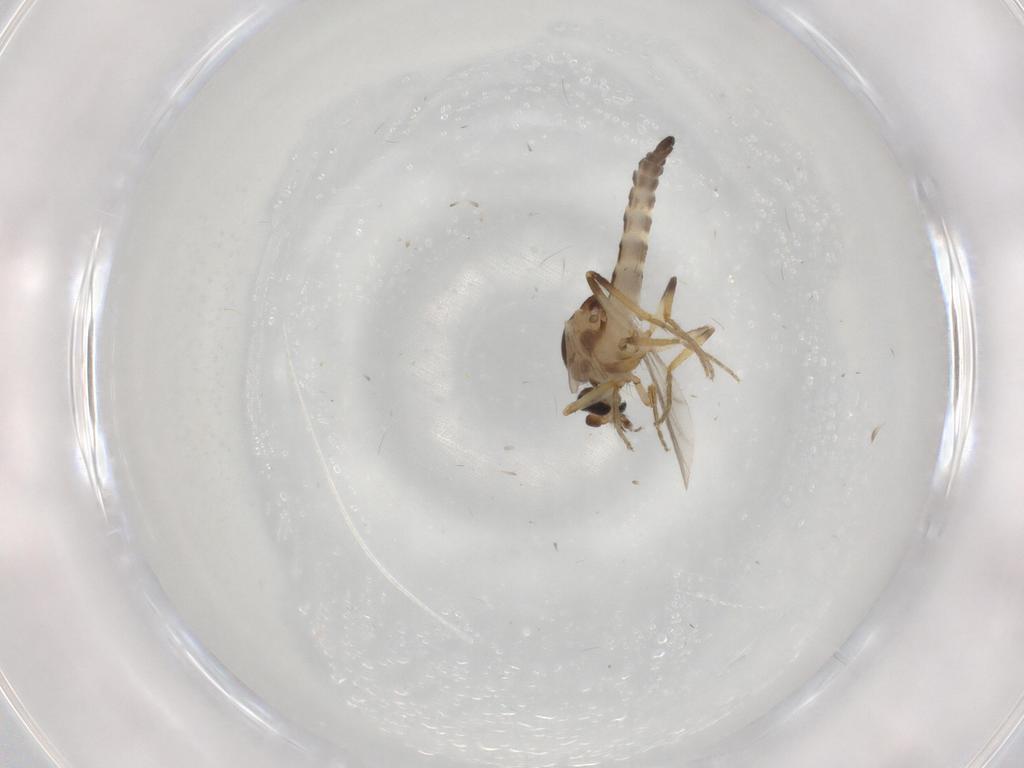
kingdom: Animalia
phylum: Arthropoda
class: Insecta
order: Diptera
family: Ceratopogonidae
